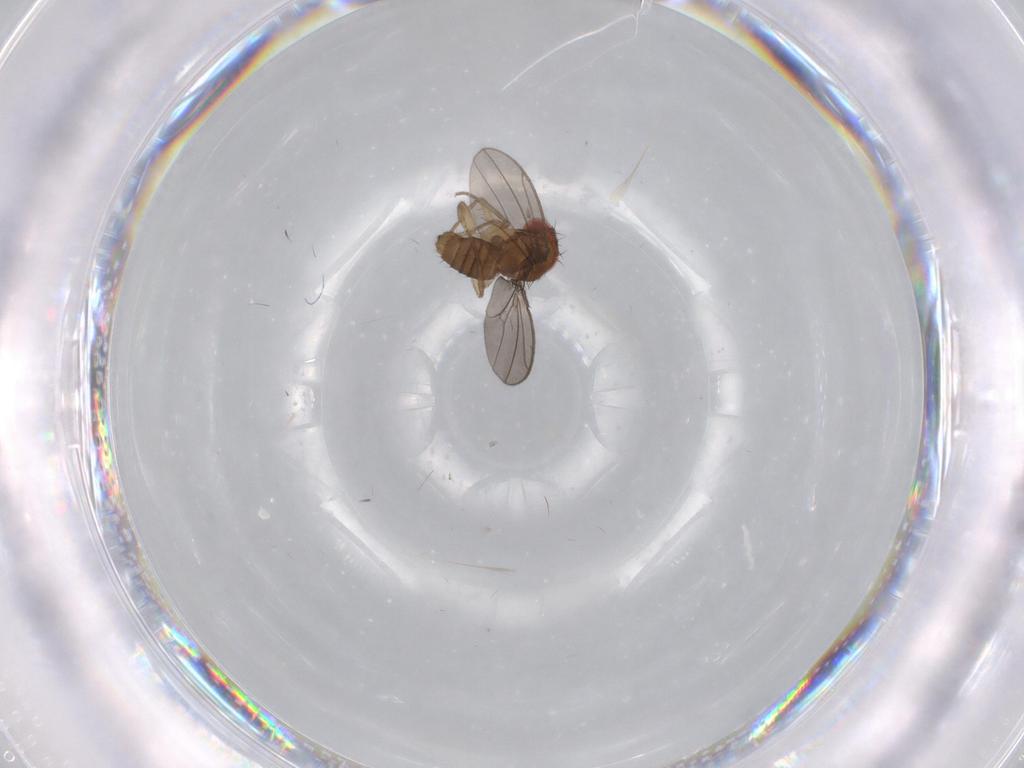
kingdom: Animalia
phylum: Arthropoda
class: Insecta
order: Diptera
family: Drosophilidae
